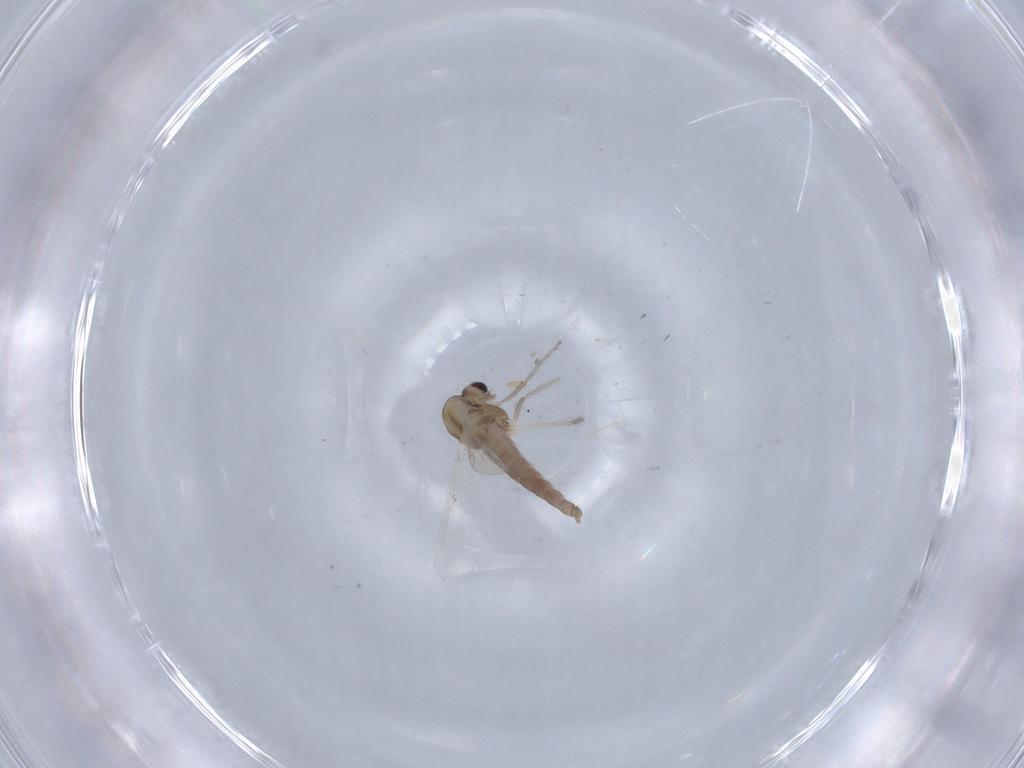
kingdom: Animalia
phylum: Arthropoda
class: Insecta
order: Diptera
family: Chironomidae
